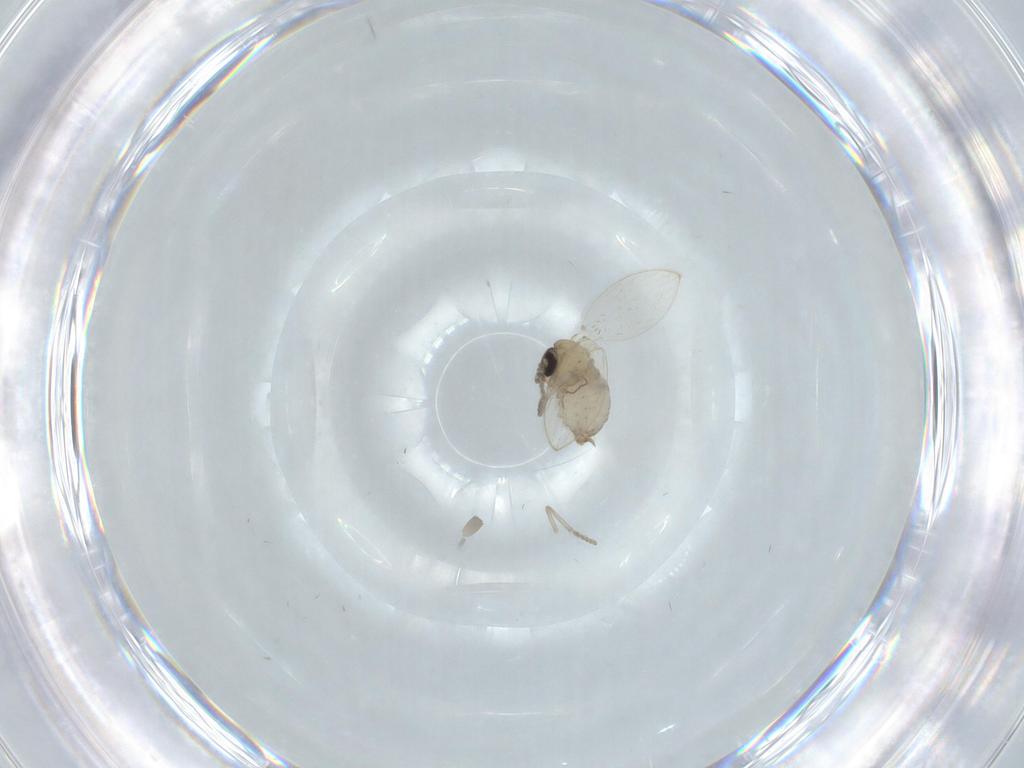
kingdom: Animalia
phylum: Arthropoda
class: Insecta
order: Diptera
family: Psychodidae
